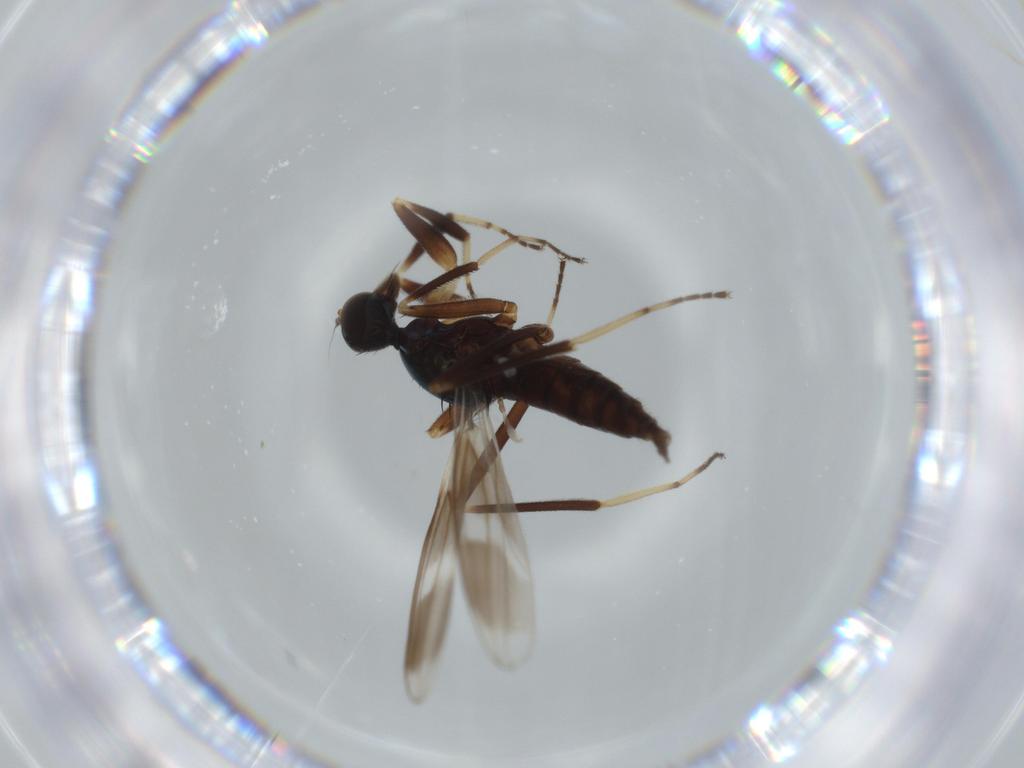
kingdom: Animalia
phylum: Arthropoda
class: Insecta
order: Diptera
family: Hybotidae
